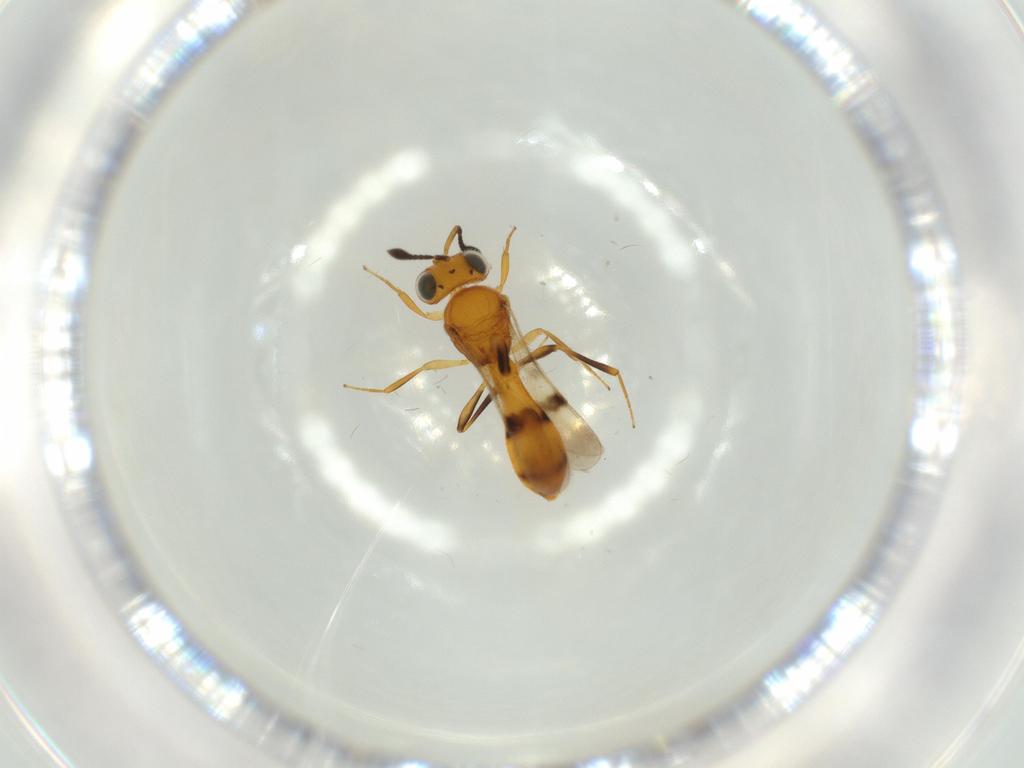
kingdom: Animalia
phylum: Arthropoda
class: Insecta
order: Hymenoptera
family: Scelionidae
